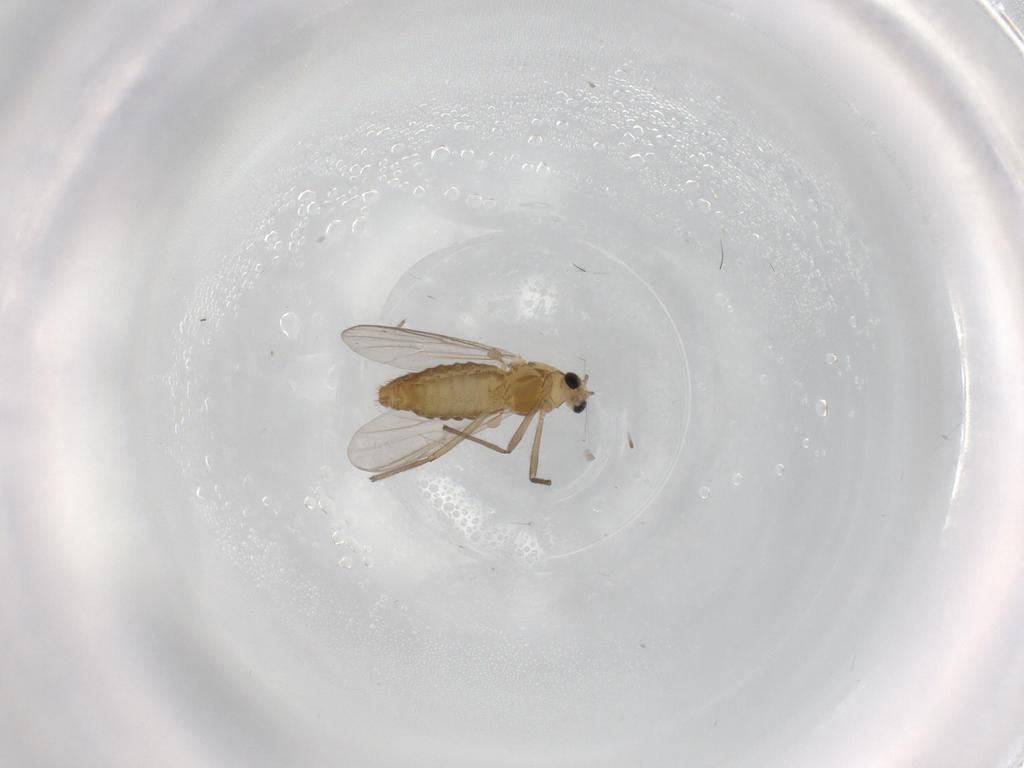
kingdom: Animalia
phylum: Arthropoda
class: Insecta
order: Diptera
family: Chironomidae
